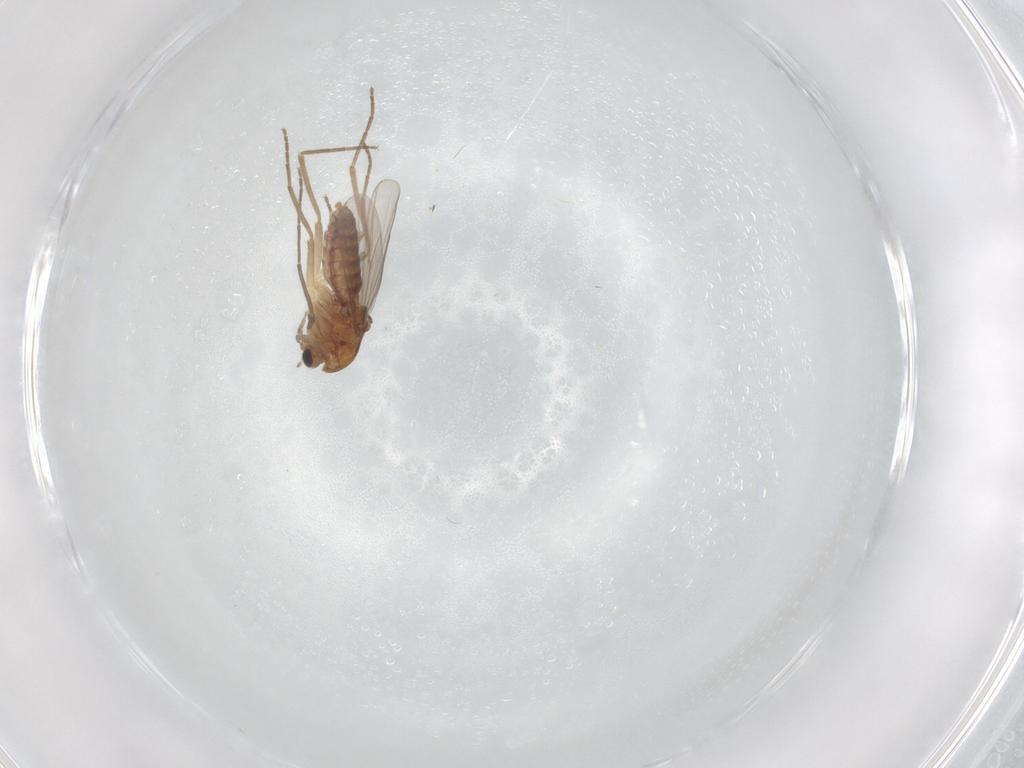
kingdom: Animalia
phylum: Arthropoda
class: Insecta
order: Diptera
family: Chironomidae
